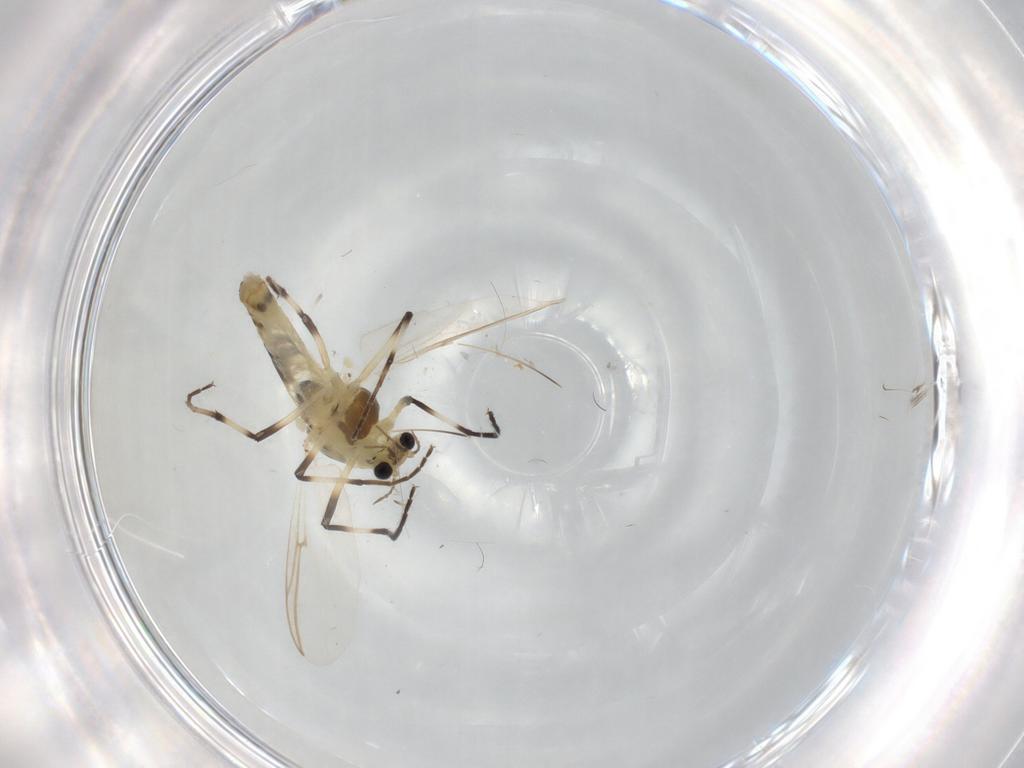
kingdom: Animalia
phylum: Arthropoda
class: Insecta
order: Diptera
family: Chironomidae
